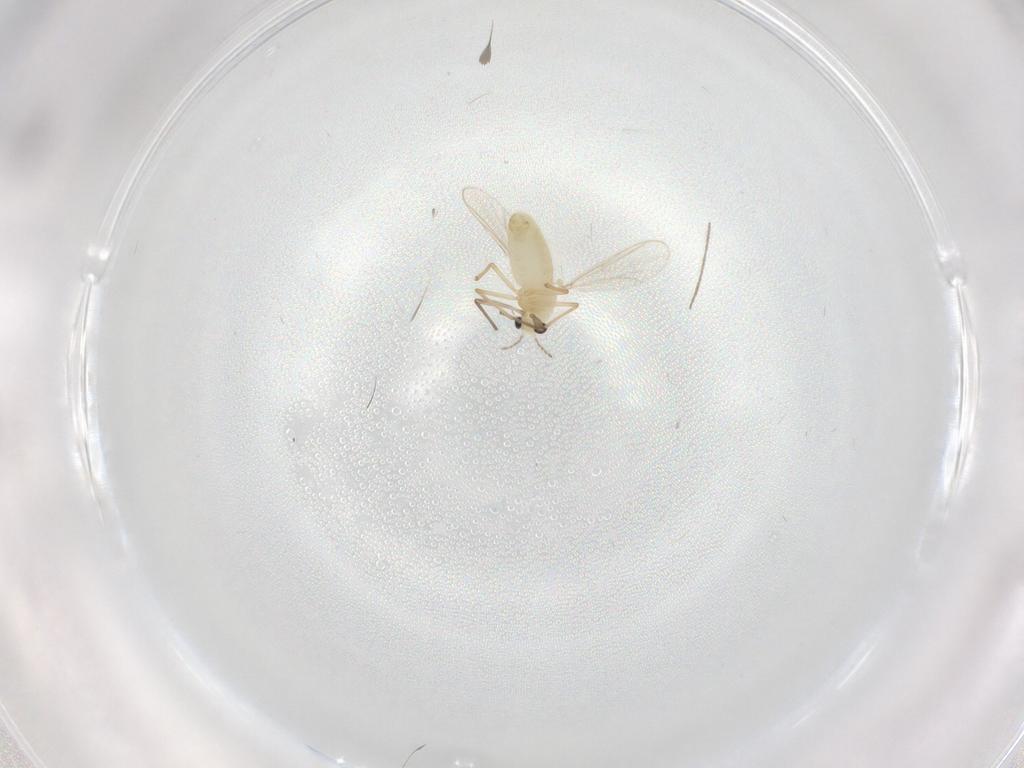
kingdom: Animalia
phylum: Arthropoda
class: Insecta
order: Diptera
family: Chironomidae
